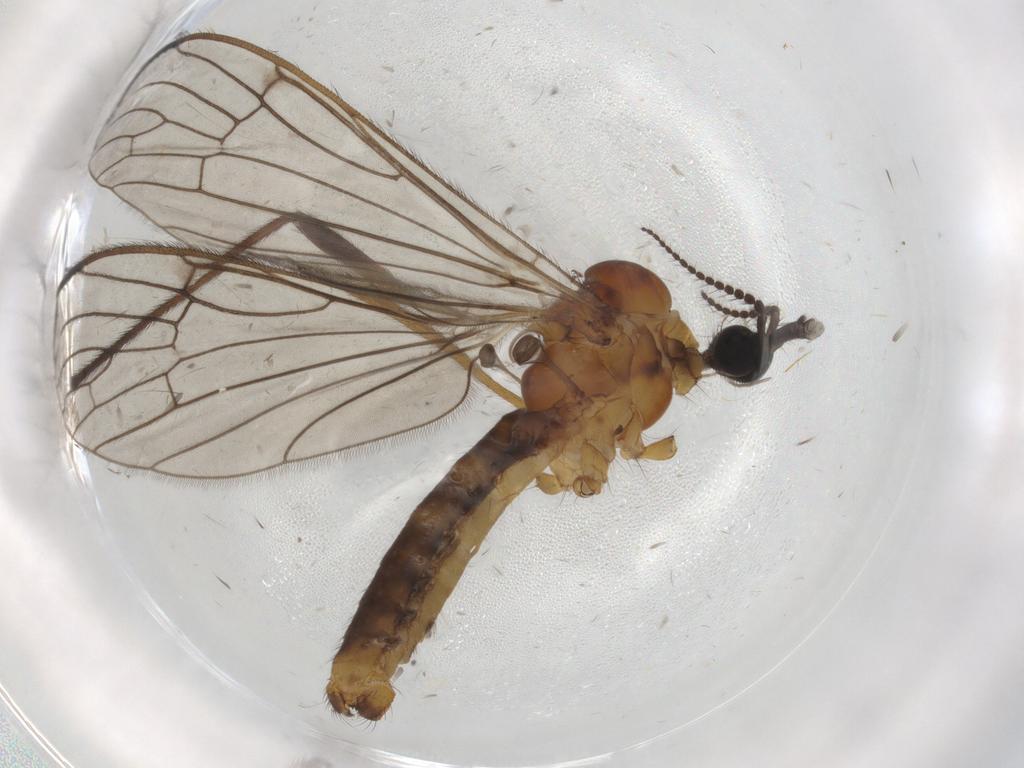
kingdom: Animalia
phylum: Arthropoda
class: Insecta
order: Diptera
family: Limoniidae
